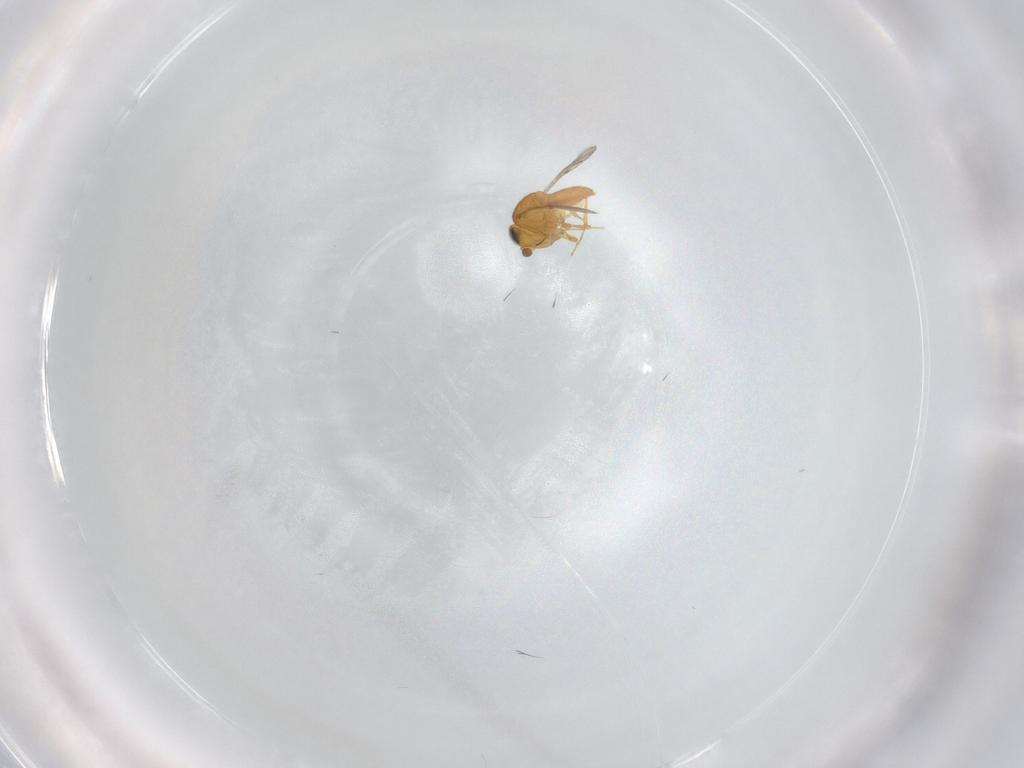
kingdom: Animalia
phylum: Arthropoda
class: Insecta
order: Hymenoptera
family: Scelionidae
